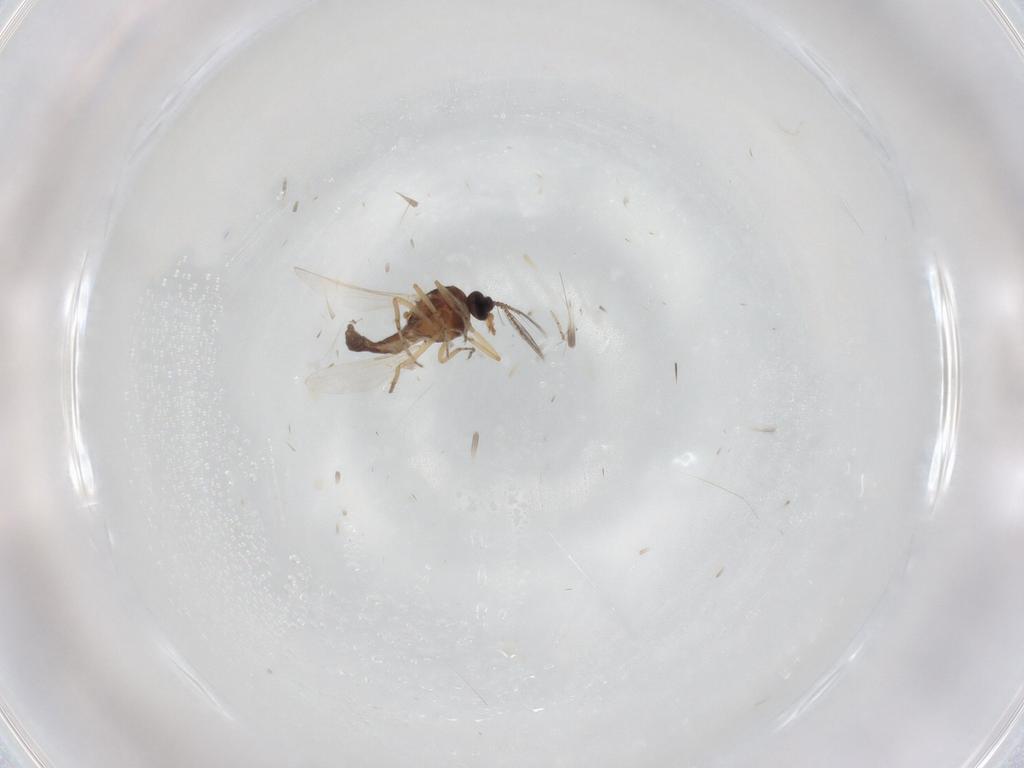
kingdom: Animalia
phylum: Arthropoda
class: Insecta
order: Diptera
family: Ceratopogonidae
